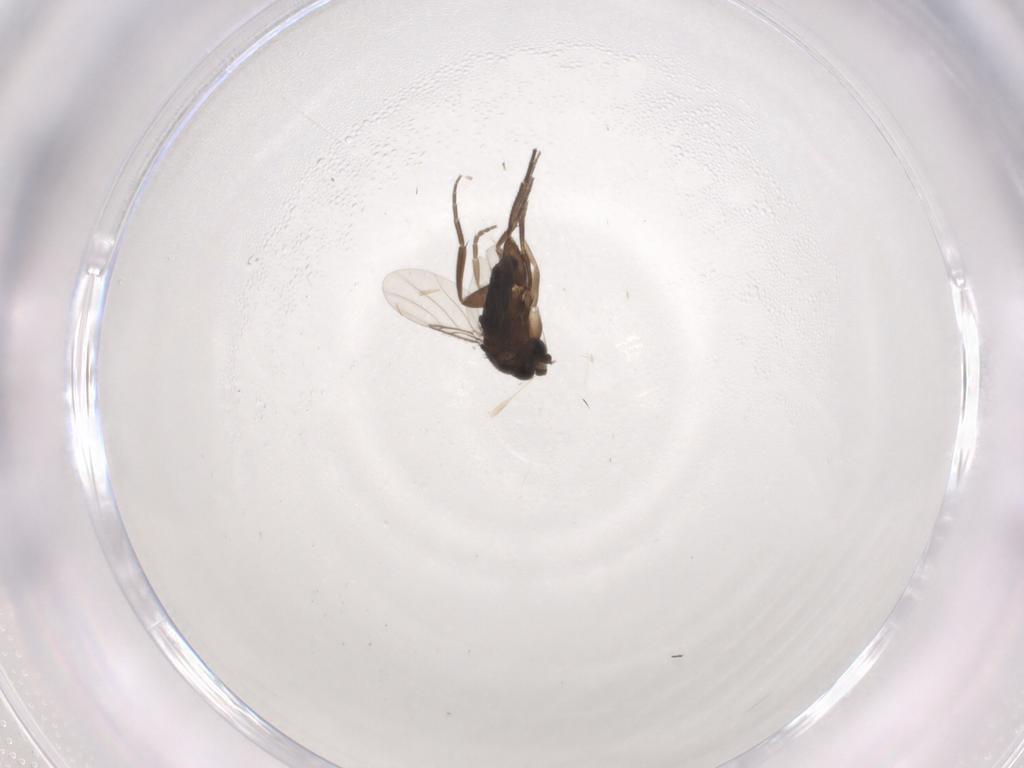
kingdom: Animalia
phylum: Arthropoda
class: Insecta
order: Diptera
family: Phoridae
